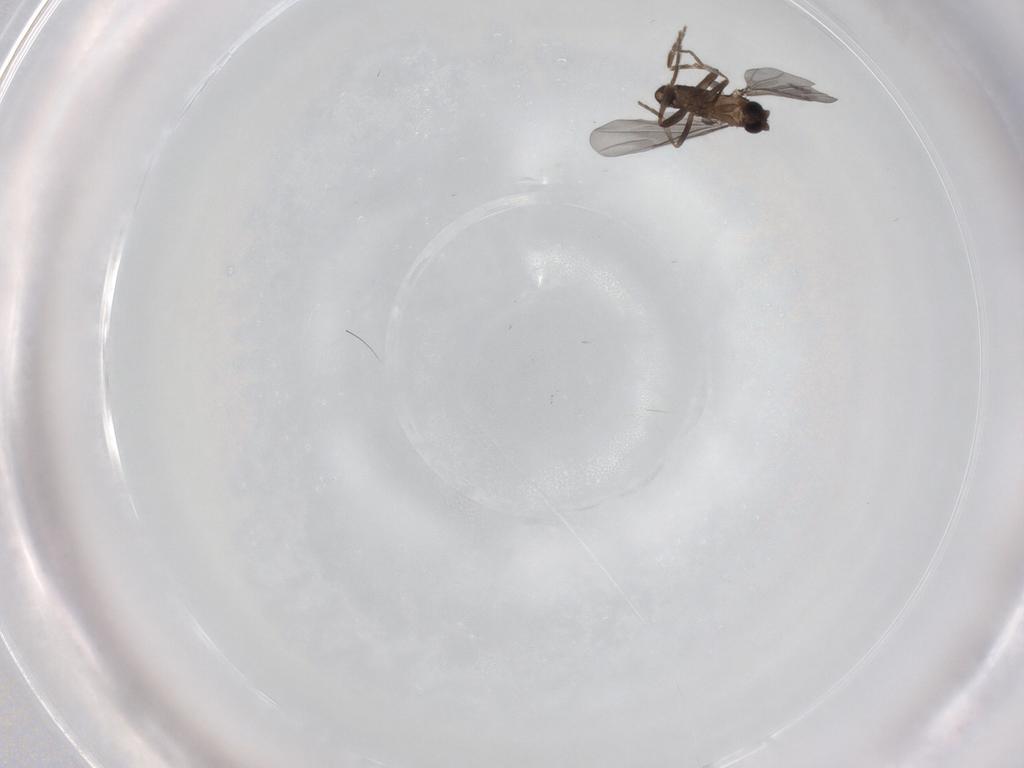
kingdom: Animalia
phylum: Arthropoda
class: Insecta
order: Diptera
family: Phoridae
